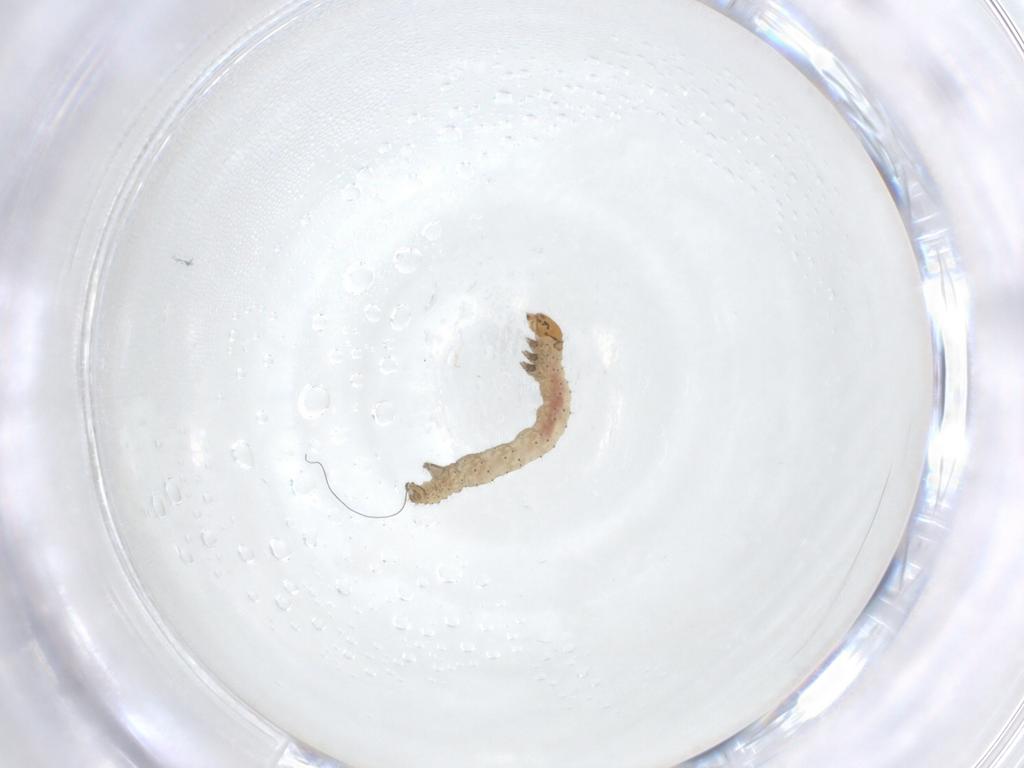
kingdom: Animalia
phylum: Arthropoda
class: Insecta
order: Lepidoptera
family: Geometridae
